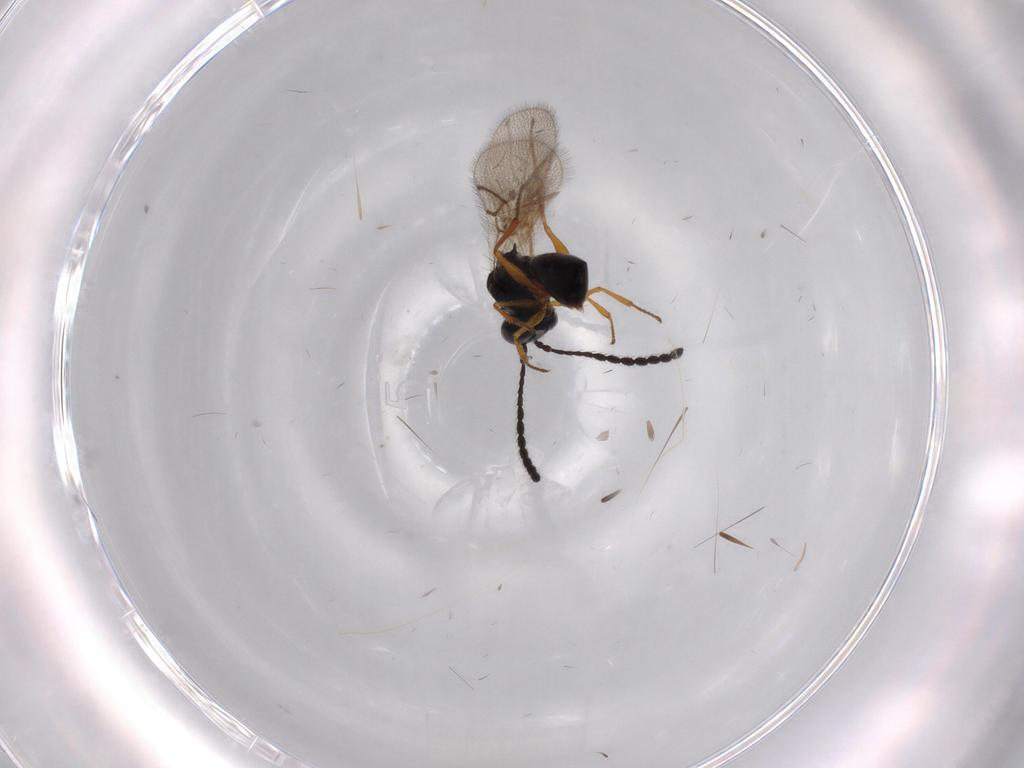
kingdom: Animalia
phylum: Arthropoda
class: Insecta
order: Hymenoptera
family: Figitidae
